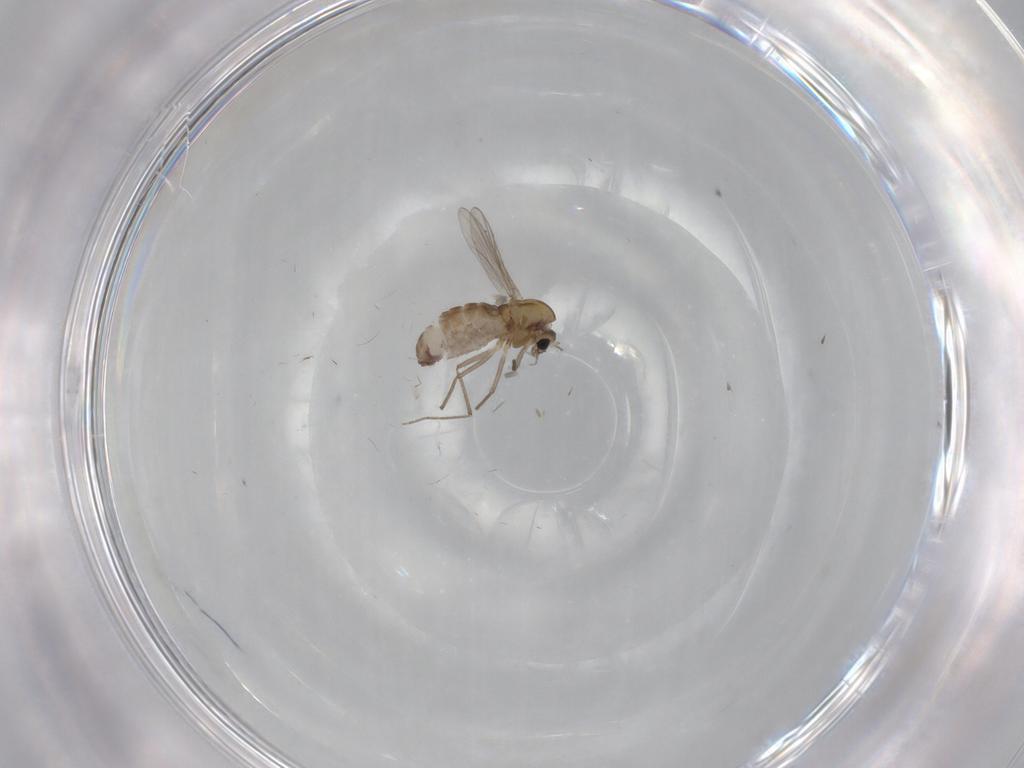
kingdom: Animalia
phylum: Arthropoda
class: Insecta
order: Diptera
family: Chironomidae
